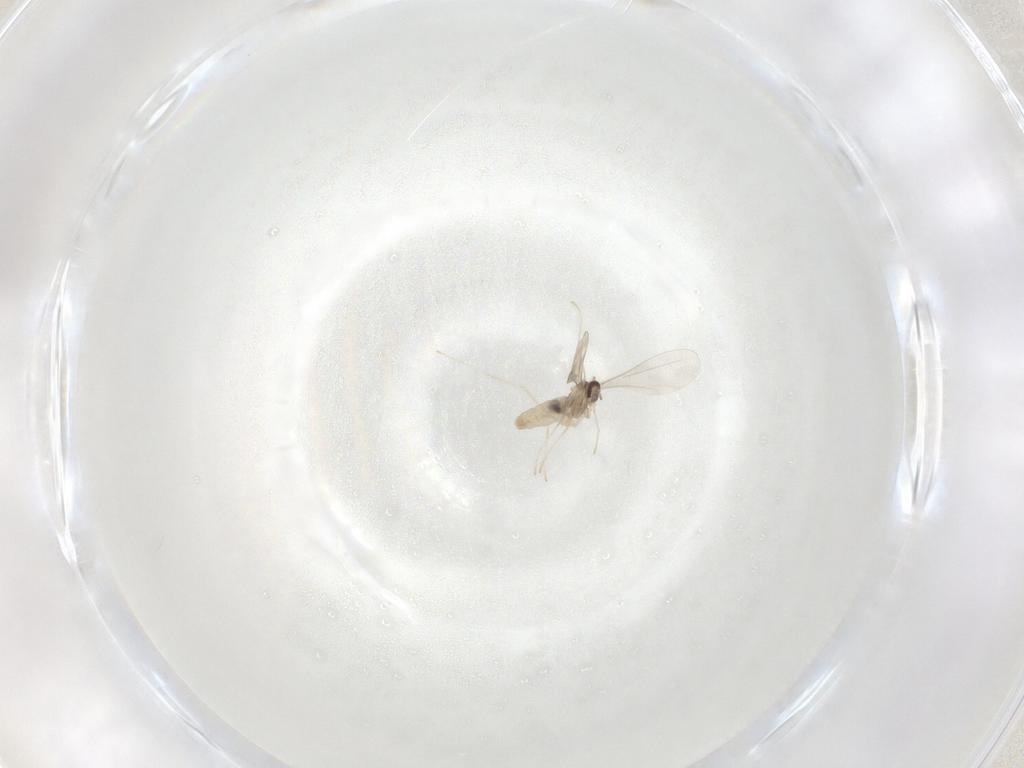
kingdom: Animalia
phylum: Arthropoda
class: Insecta
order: Diptera
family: Cecidomyiidae
